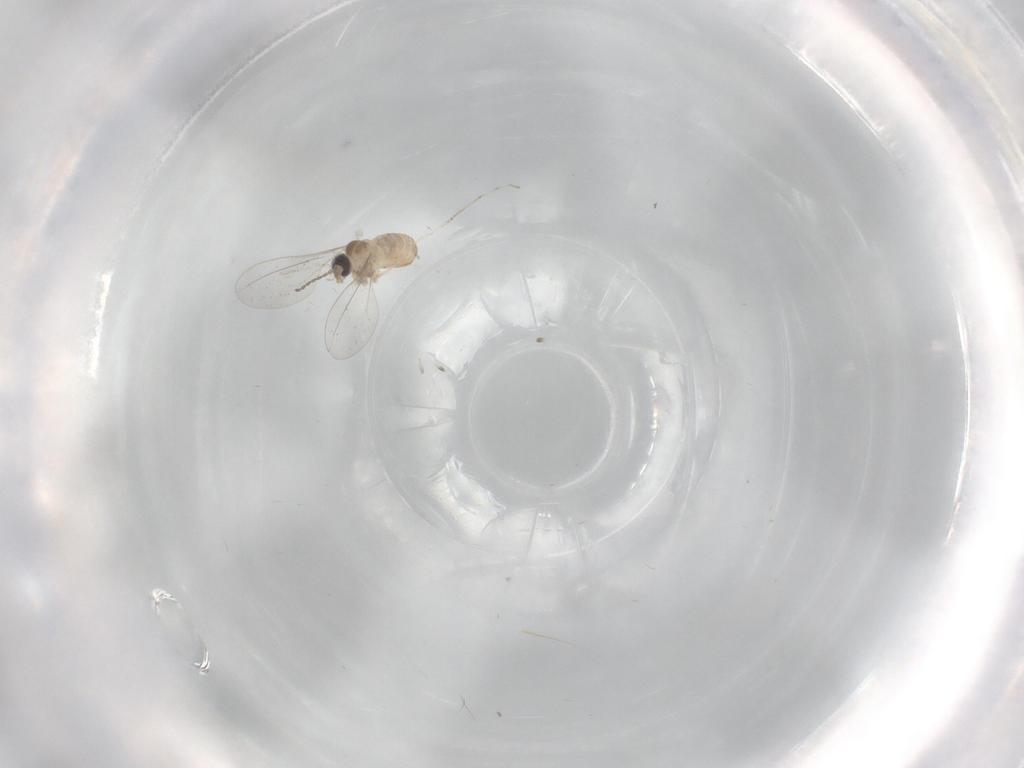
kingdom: Animalia
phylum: Arthropoda
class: Insecta
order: Diptera
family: Cecidomyiidae
